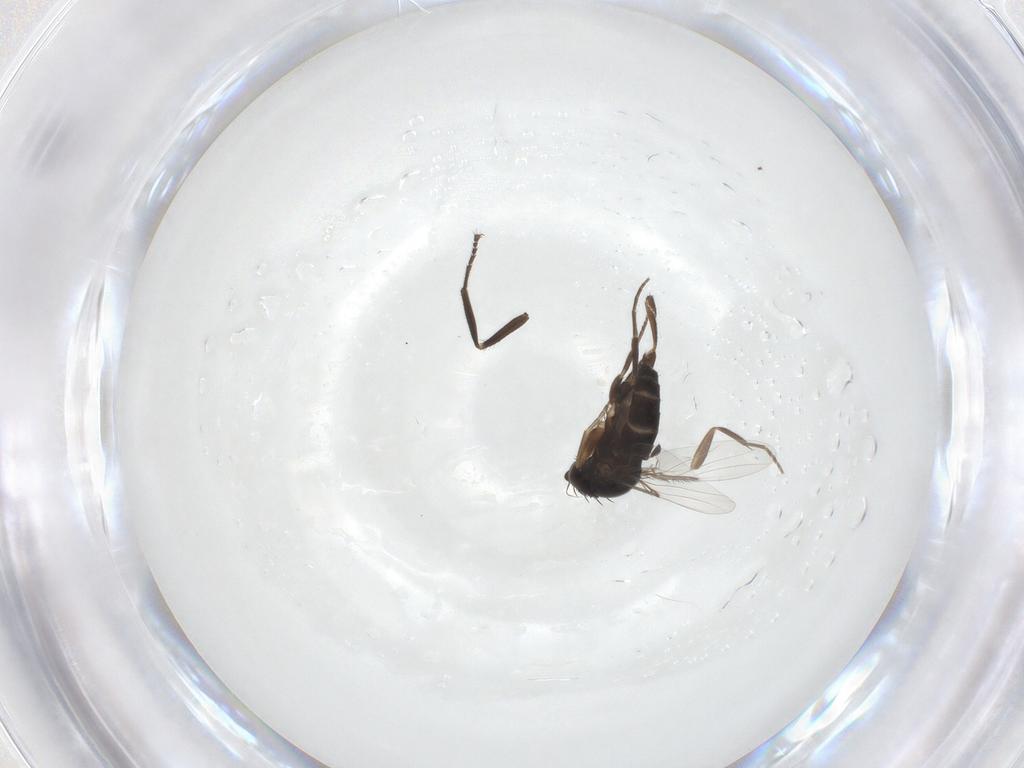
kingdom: Animalia
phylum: Arthropoda
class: Insecta
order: Diptera
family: Hybotidae
